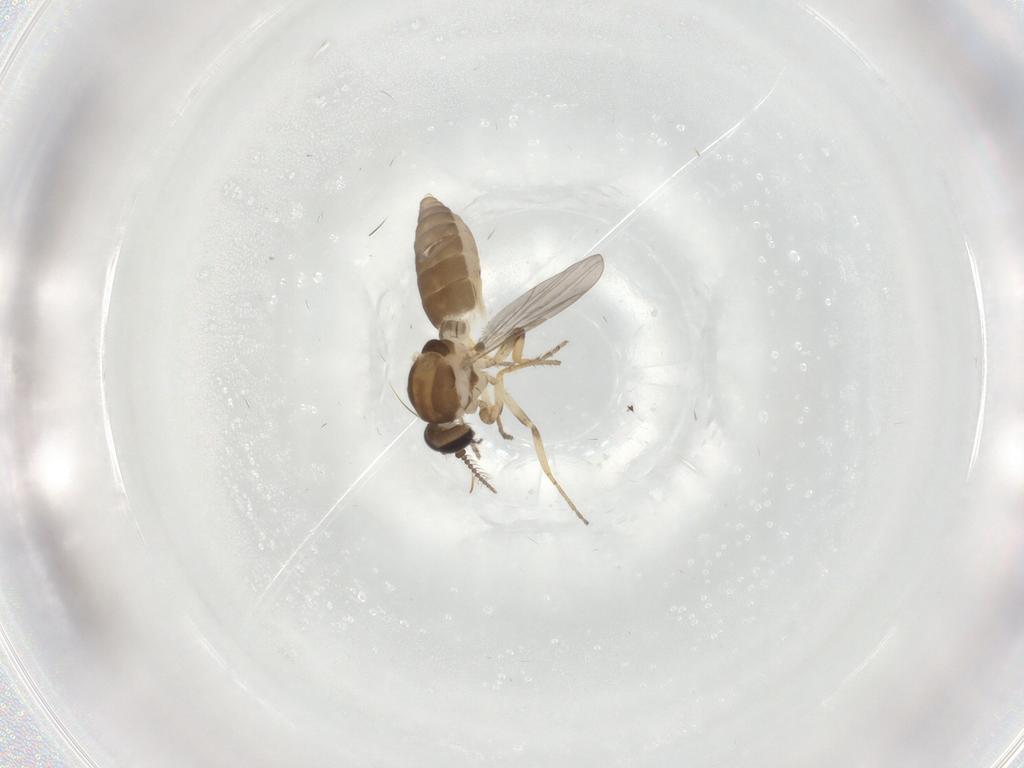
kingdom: Animalia
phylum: Arthropoda
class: Insecta
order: Diptera
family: Ceratopogonidae
